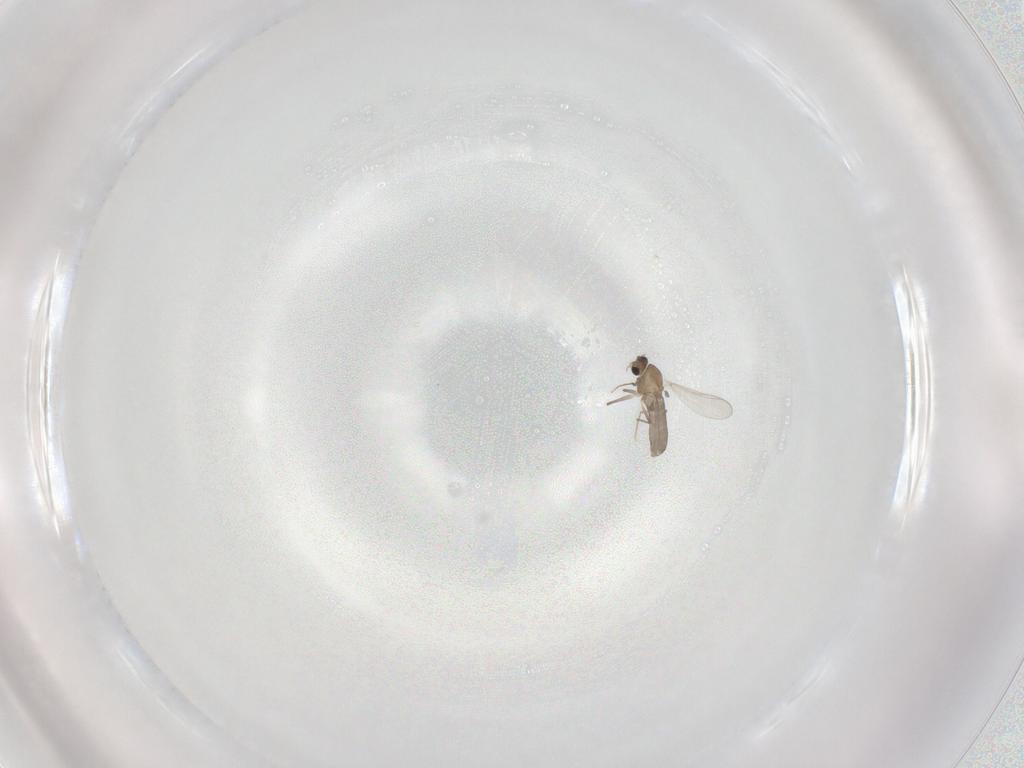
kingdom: Animalia
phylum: Arthropoda
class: Insecta
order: Diptera
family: Chironomidae
